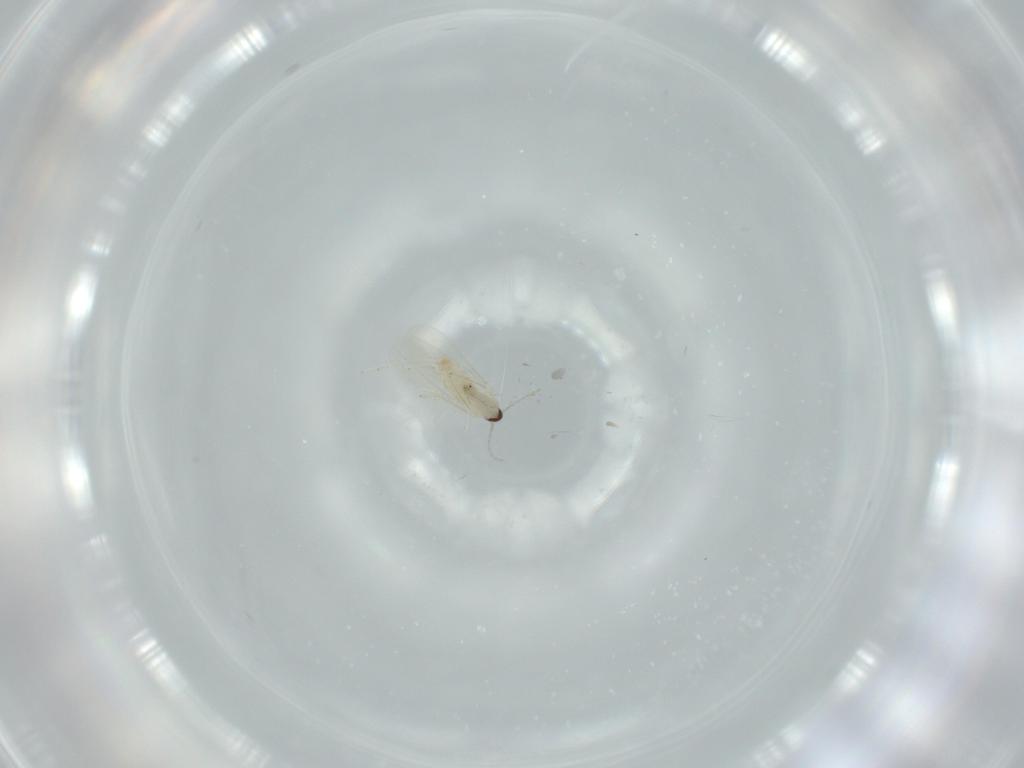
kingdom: Animalia
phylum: Arthropoda
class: Insecta
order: Diptera
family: Cecidomyiidae
